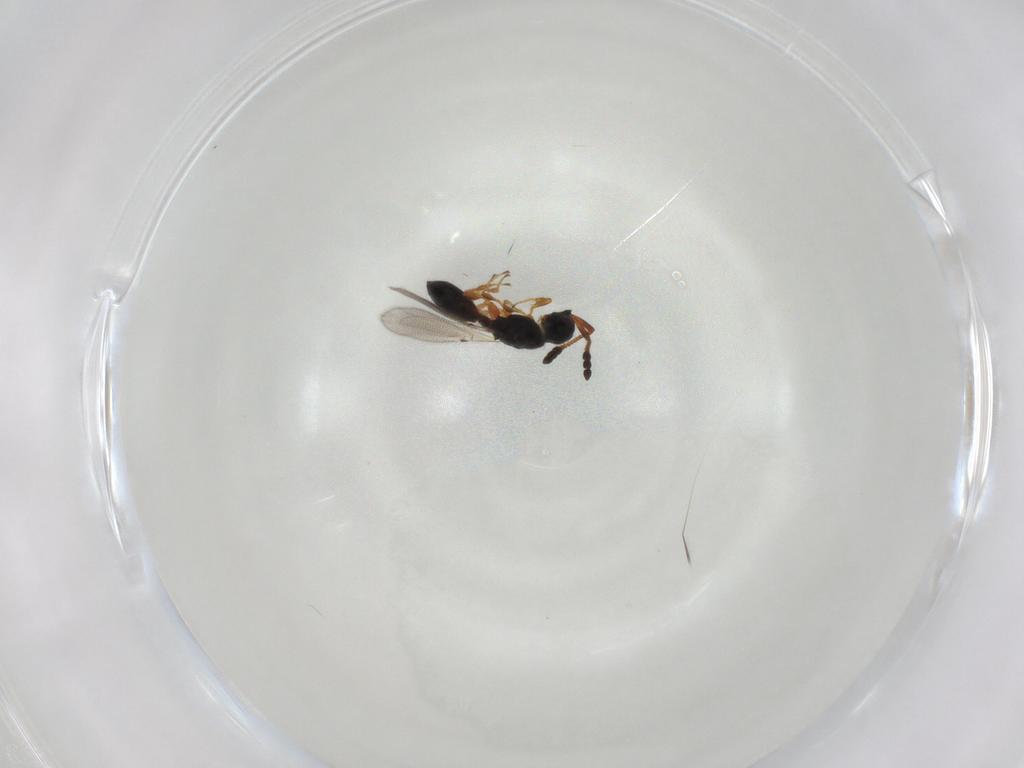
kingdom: Animalia
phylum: Arthropoda
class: Insecta
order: Hymenoptera
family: Diapriidae
